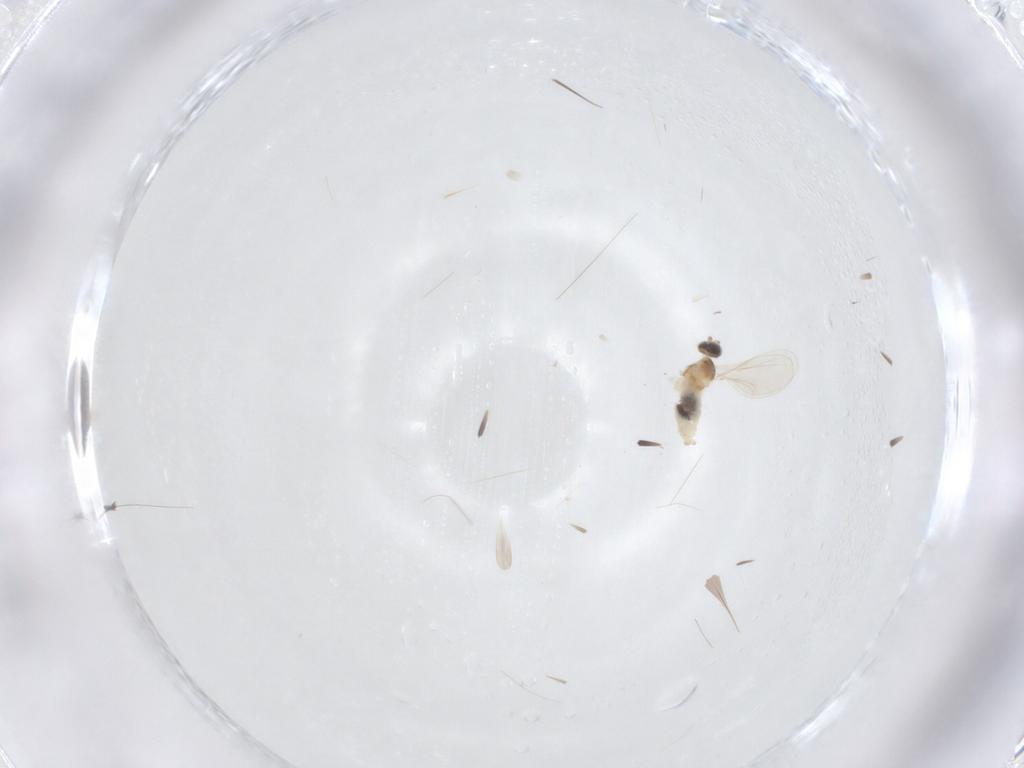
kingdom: Animalia
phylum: Arthropoda
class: Insecta
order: Diptera
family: Cecidomyiidae
